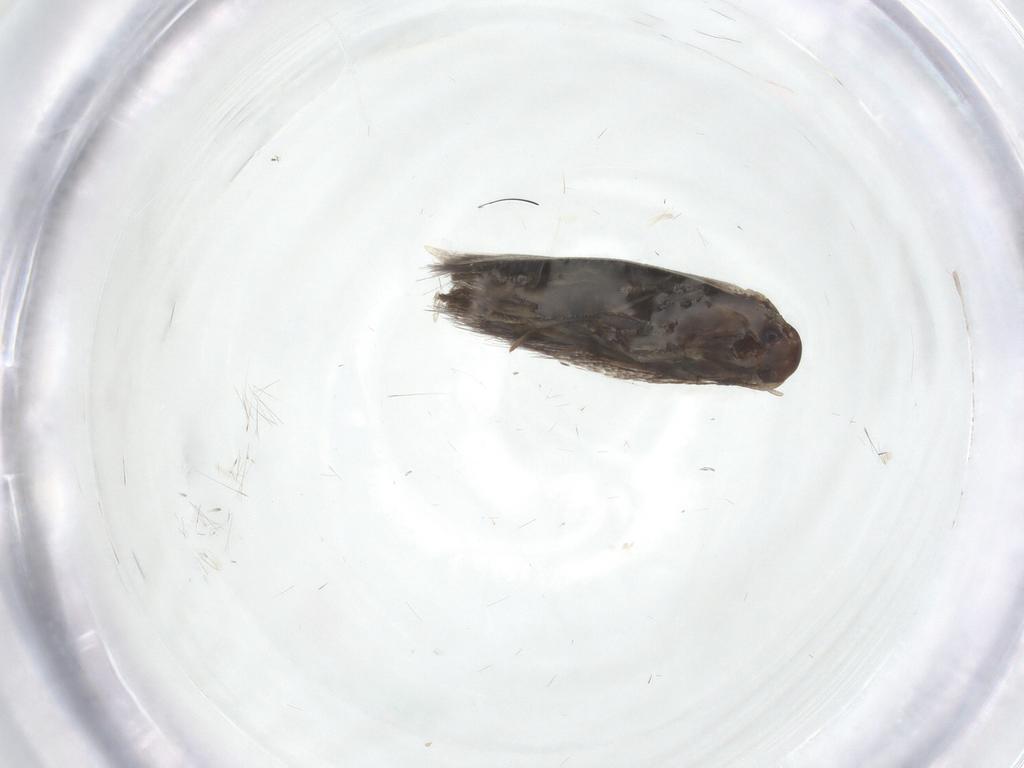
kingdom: Animalia
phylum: Arthropoda
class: Insecta
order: Lepidoptera
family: Elachistidae
